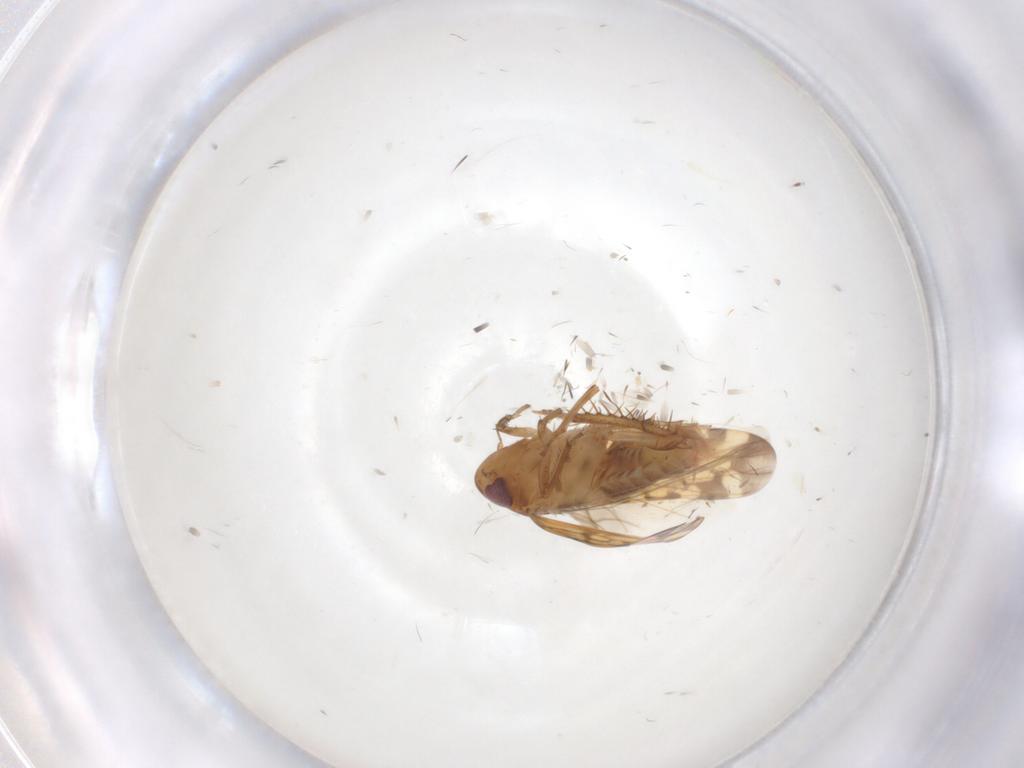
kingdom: Animalia
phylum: Arthropoda
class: Insecta
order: Hemiptera
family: Cicadellidae
